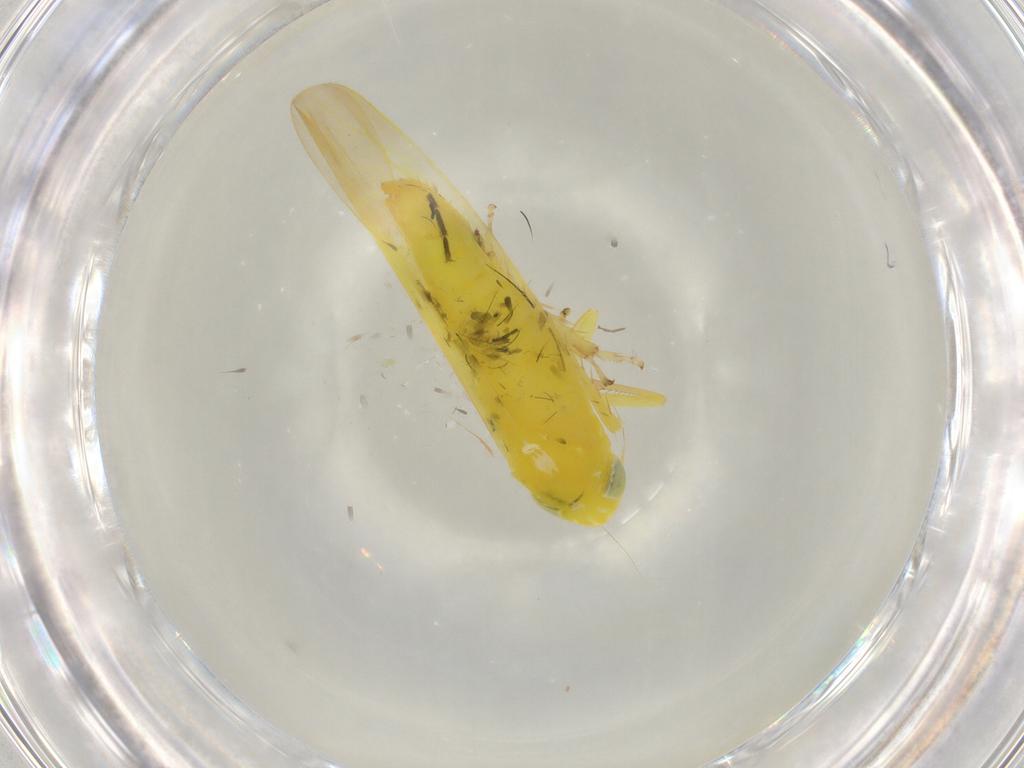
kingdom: Animalia
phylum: Arthropoda
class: Insecta
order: Hemiptera
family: Cicadellidae
